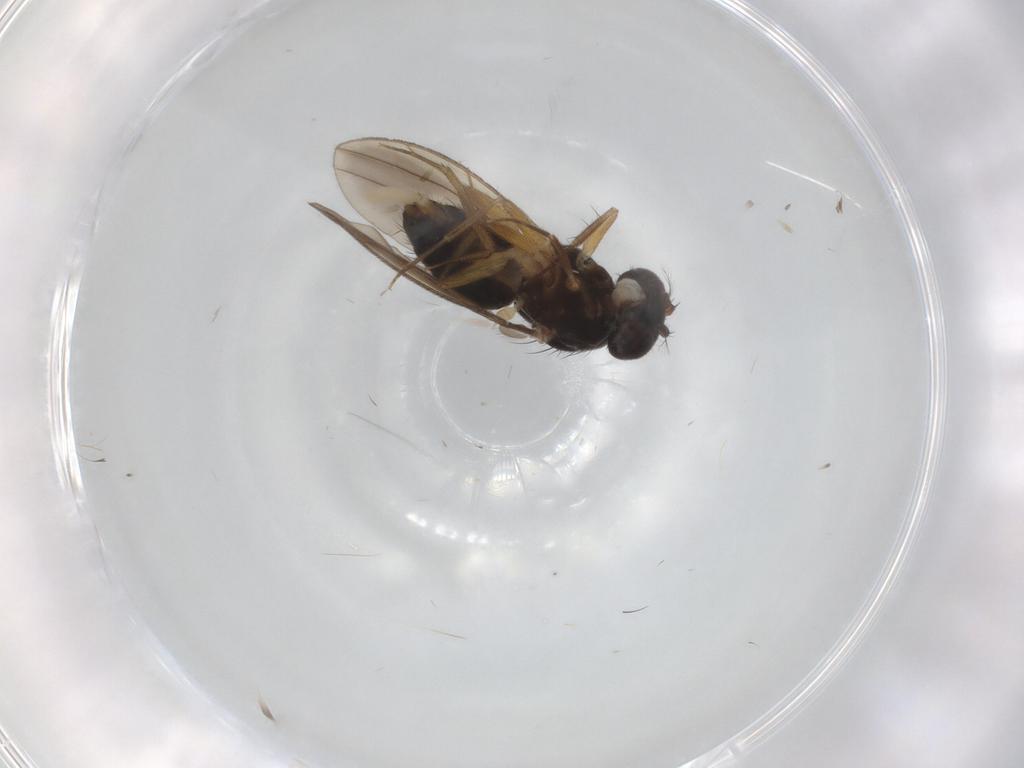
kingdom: Animalia
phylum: Arthropoda
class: Insecta
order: Diptera
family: Drosophilidae
